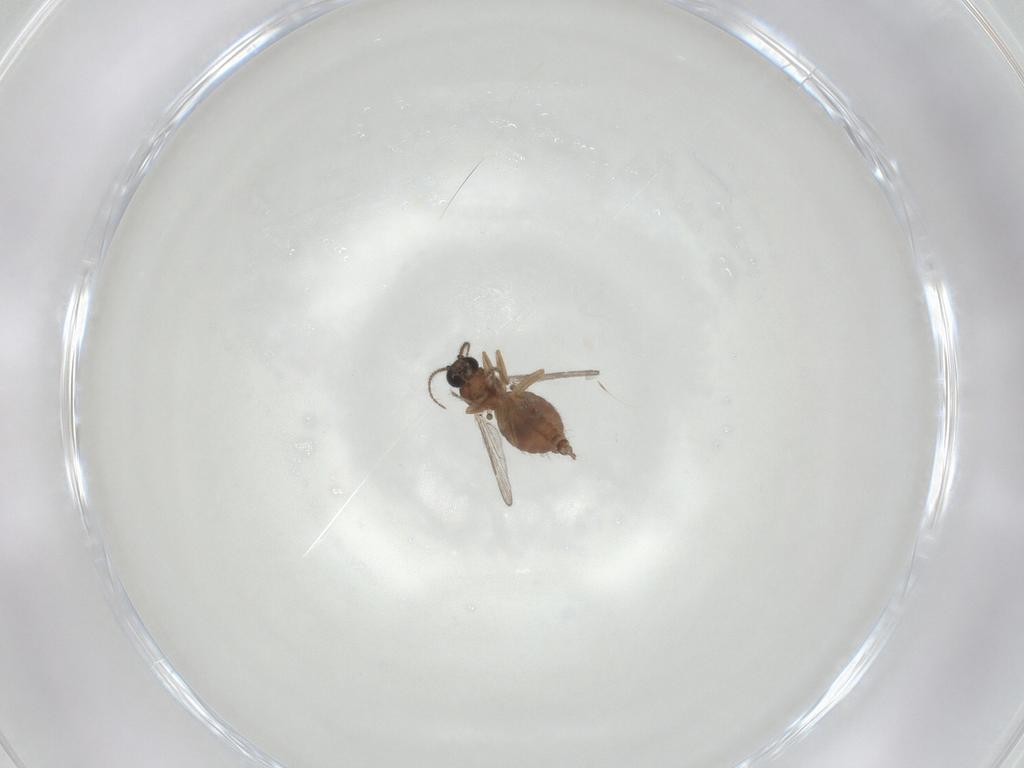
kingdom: Animalia
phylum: Arthropoda
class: Insecta
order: Diptera
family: Ceratopogonidae
